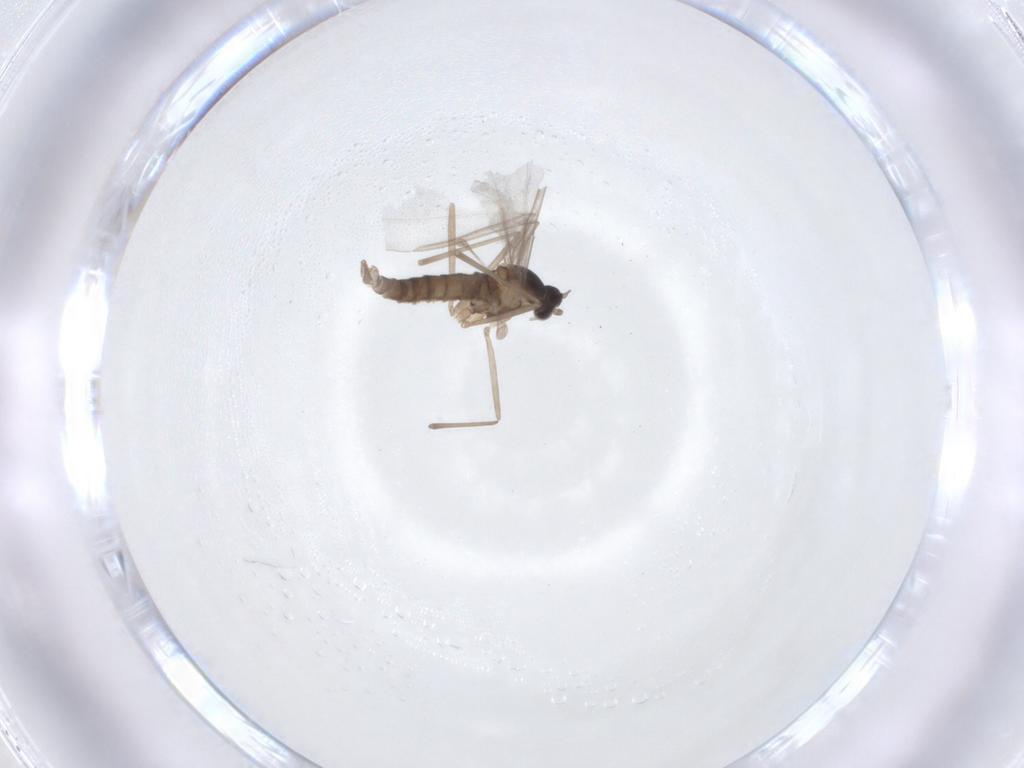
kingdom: Animalia
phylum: Arthropoda
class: Insecta
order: Diptera
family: Cecidomyiidae
